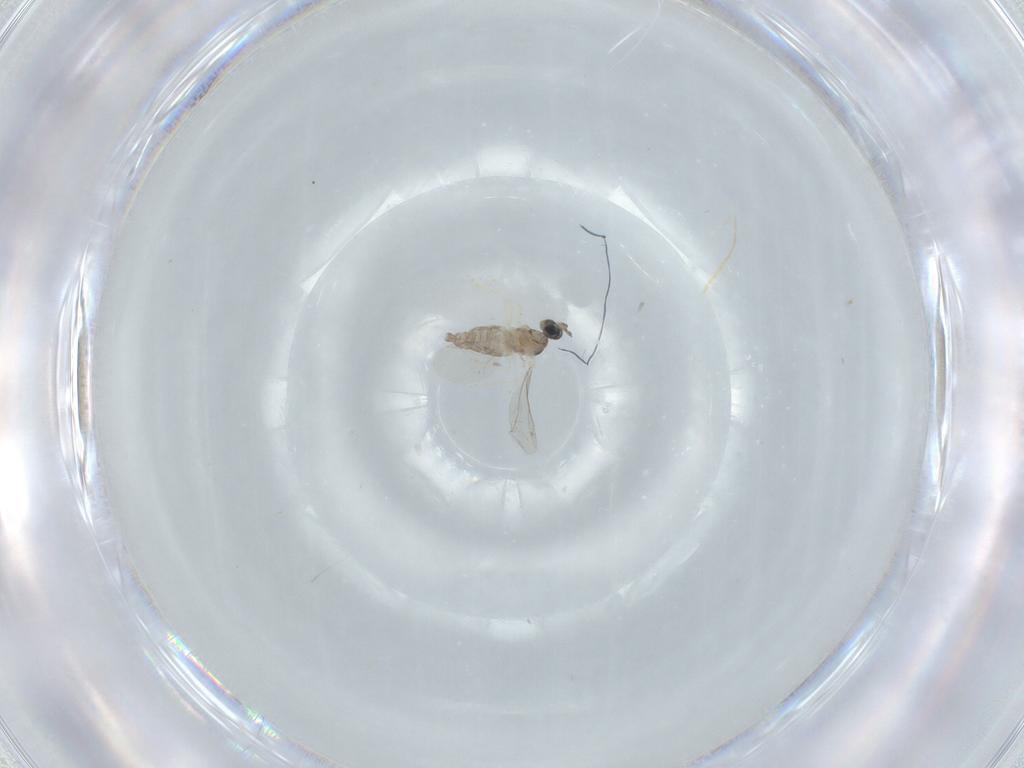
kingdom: Animalia
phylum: Arthropoda
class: Insecta
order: Diptera
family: Cecidomyiidae
